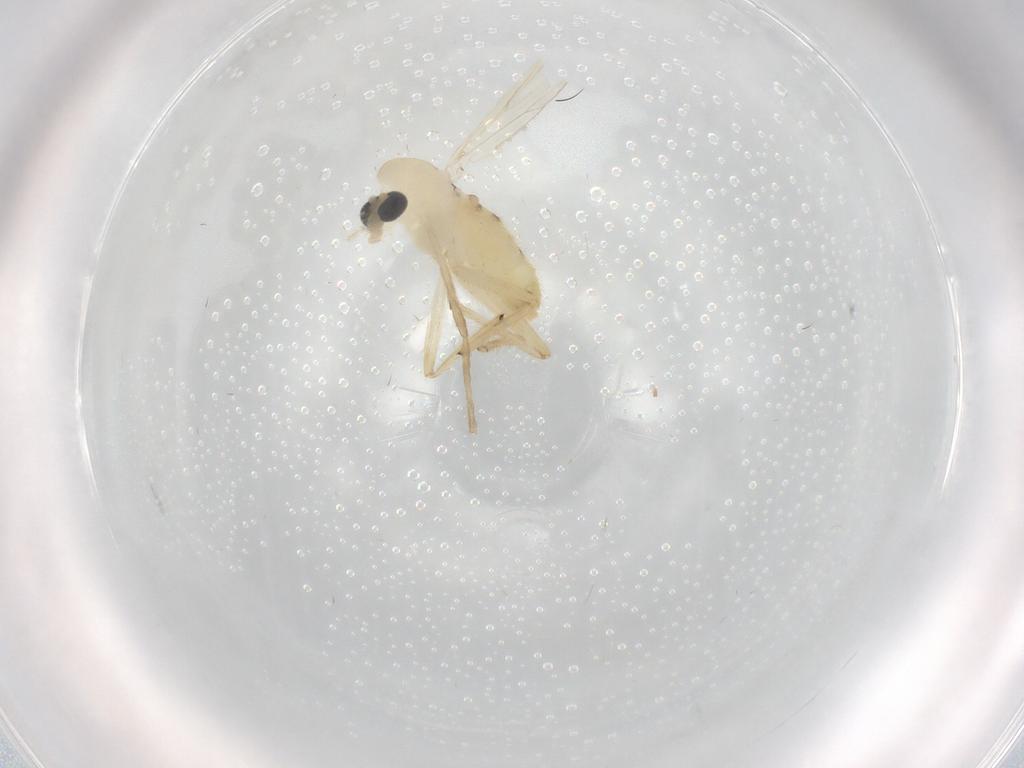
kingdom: Animalia
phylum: Arthropoda
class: Insecta
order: Diptera
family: Chironomidae
